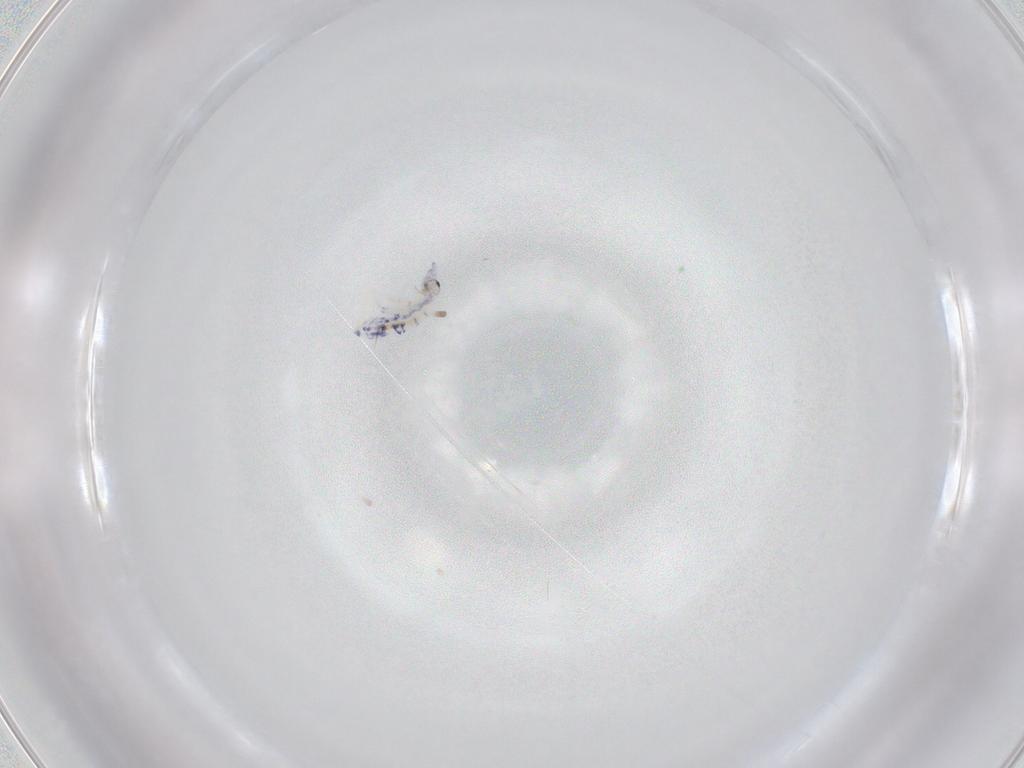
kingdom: Animalia
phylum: Arthropoda
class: Collembola
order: Entomobryomorpha
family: Entomobryidae
